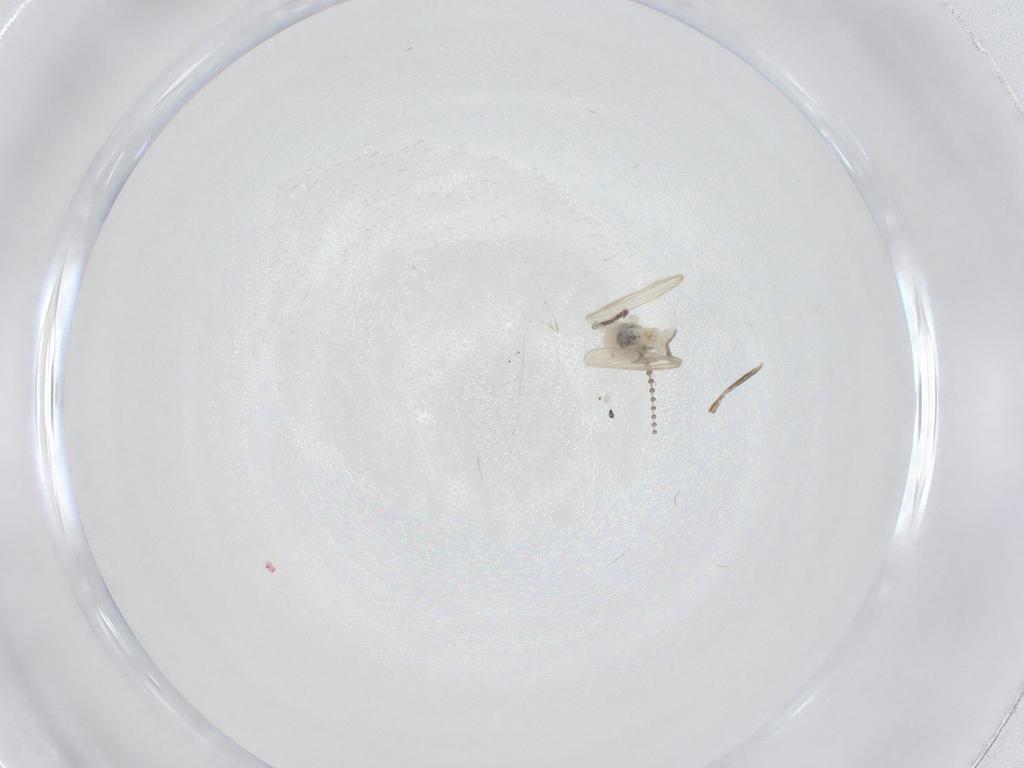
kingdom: Animalia
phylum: Arthropoda
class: Insecta
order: Diptera
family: Psychodidae
